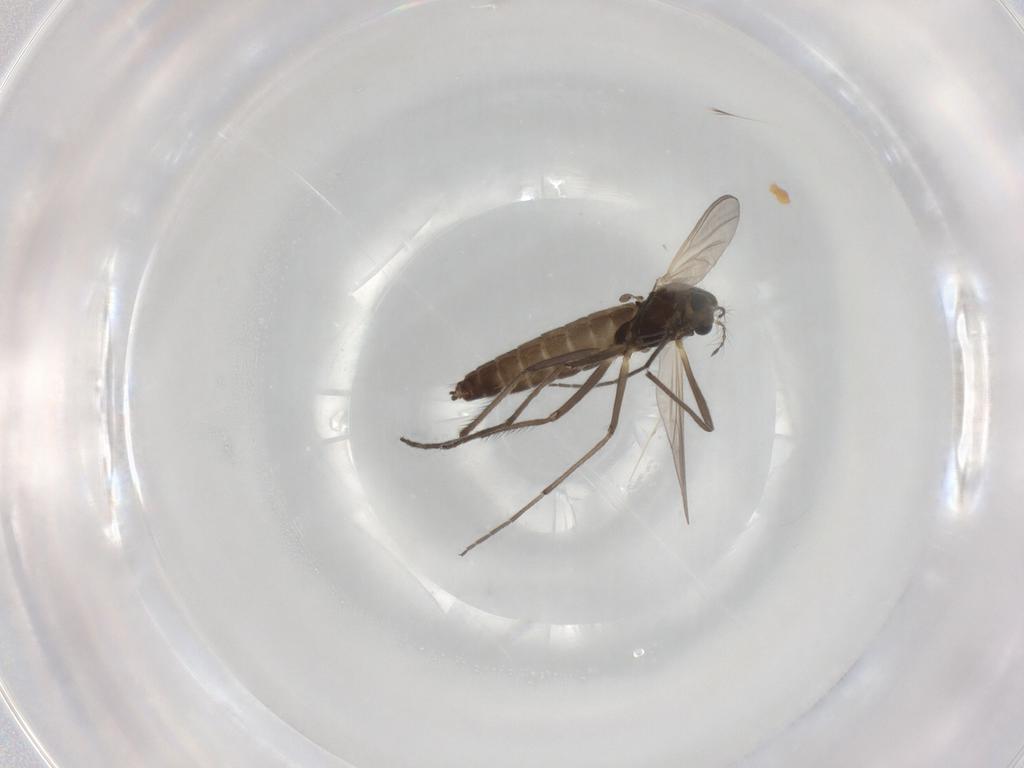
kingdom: Animalia
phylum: Arthropoda
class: Insecta
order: Diptera
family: Chironomidae
